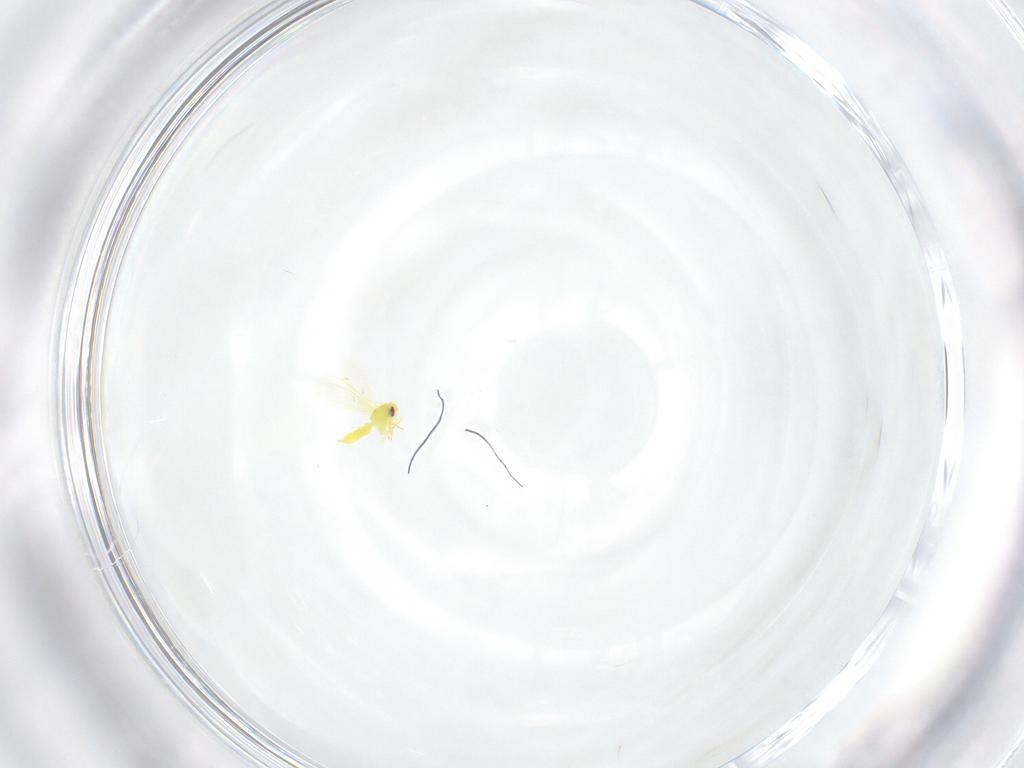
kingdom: Animalia
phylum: Arthropoda
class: Insecta
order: Hemiptera
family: Aleyrodidae
